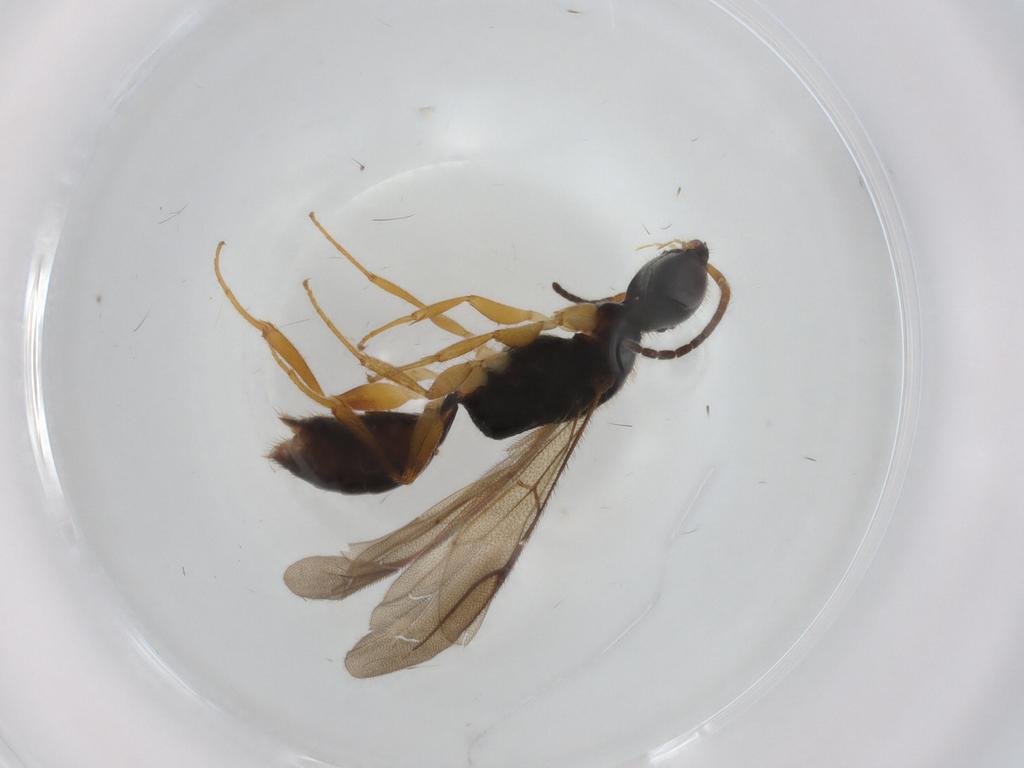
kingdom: Animalia
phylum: Arthropoda
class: Insecta
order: Hymenoptera
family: Bethylidae
